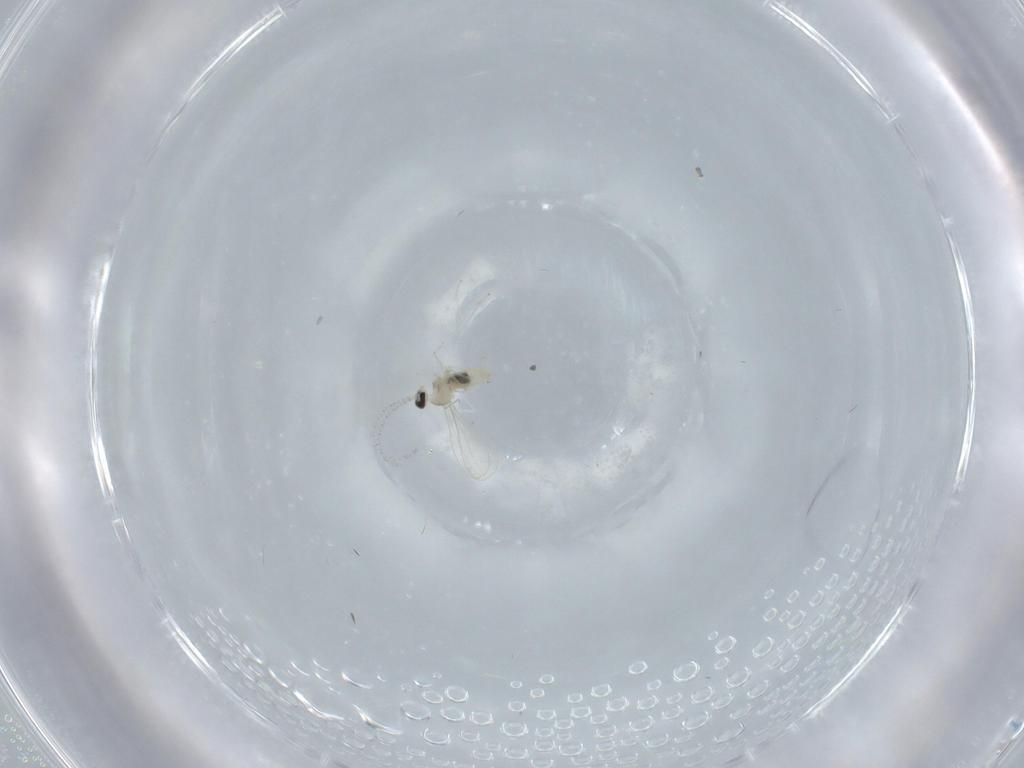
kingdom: Animalia
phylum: Arthropoda
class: Insecta
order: Diptera
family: Cecidomyiidae
